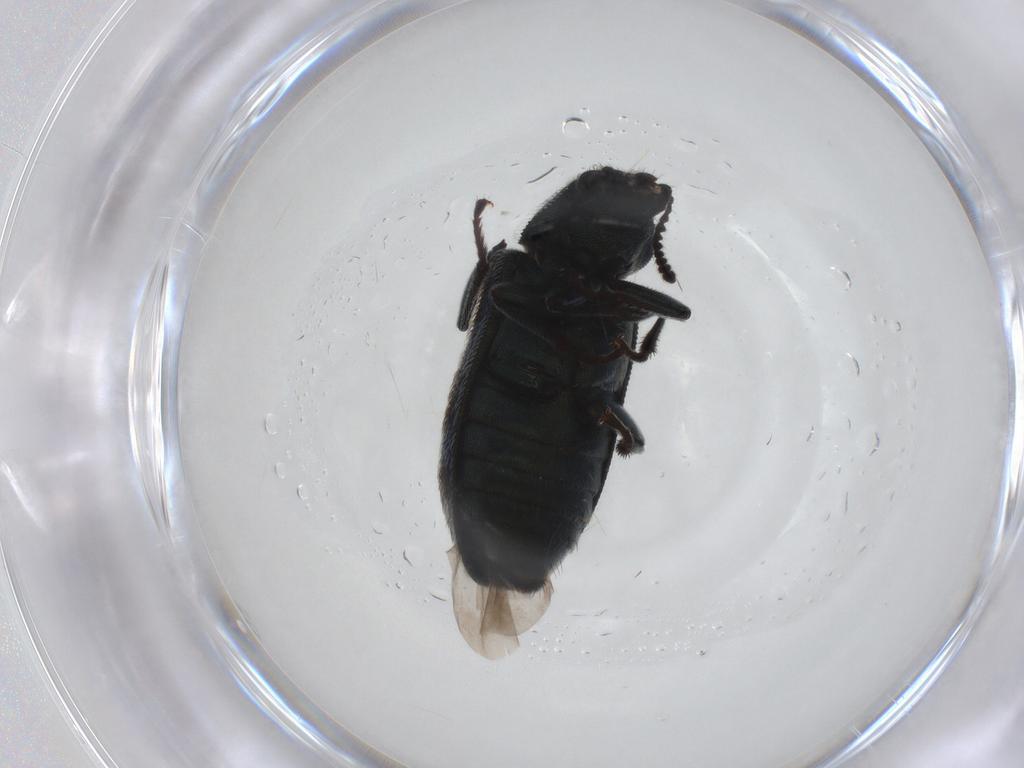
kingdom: Animalia
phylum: Arthropoda
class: Insecta
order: Coleoptera
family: Melyridae
